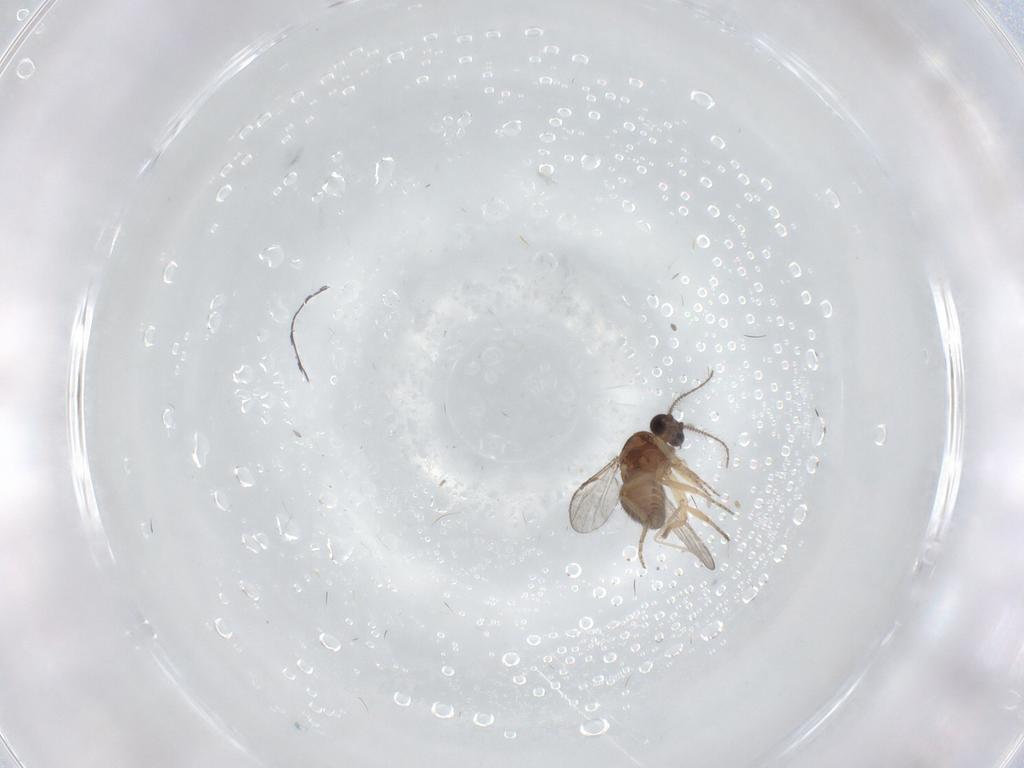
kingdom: Animalia
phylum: Arthropoda
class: Insecta
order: Diptera
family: Ceratopogonidae
